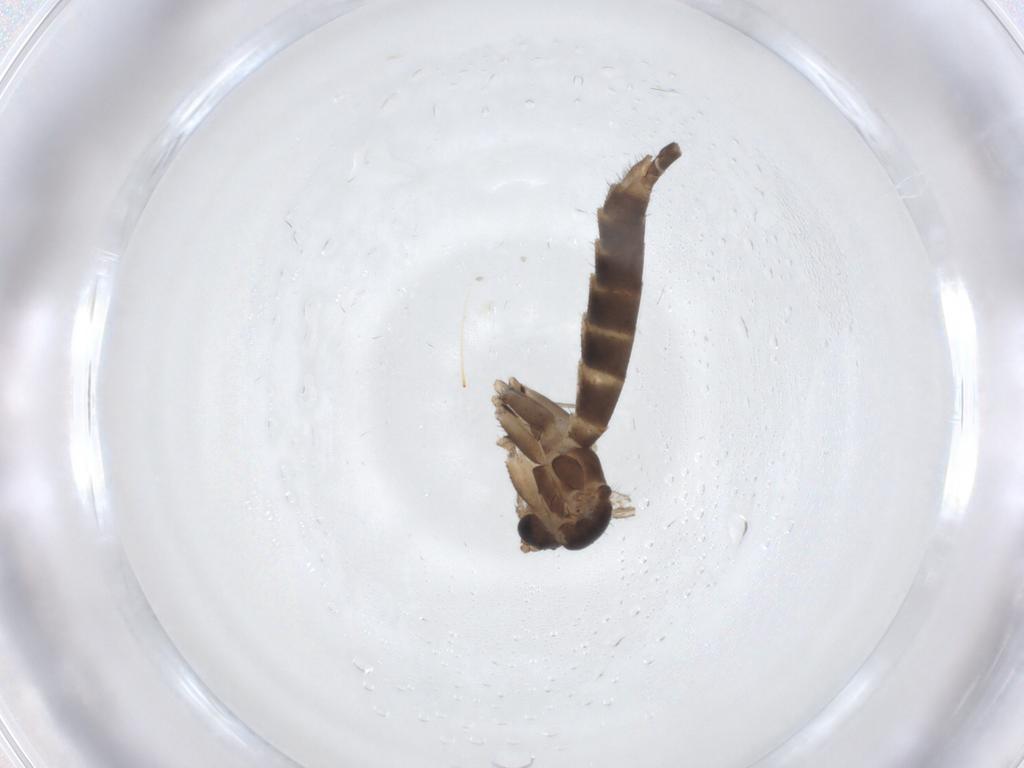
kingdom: Animalia
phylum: Arthropoda
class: Insecta
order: Diptera
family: Sciaridae
